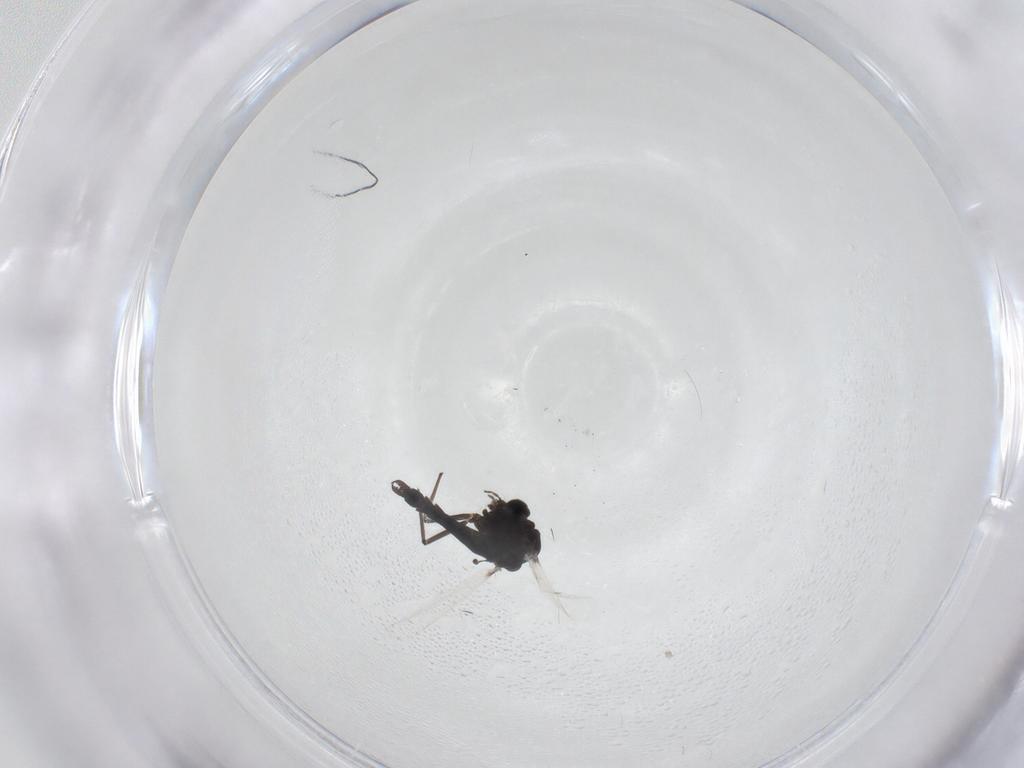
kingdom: Animalia
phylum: Arthropoda
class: Insecta
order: Diptera
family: Chironomidae
